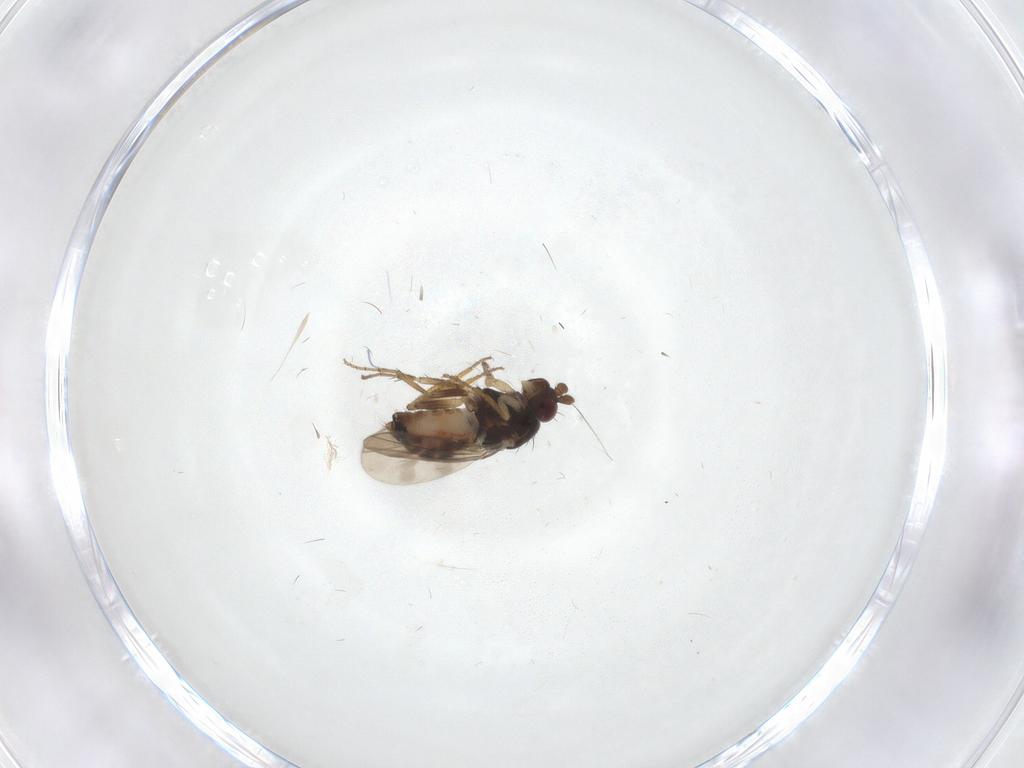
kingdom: Animalia
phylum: Arthropoda
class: Insecta
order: Diptera
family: Sphaeroceridae
